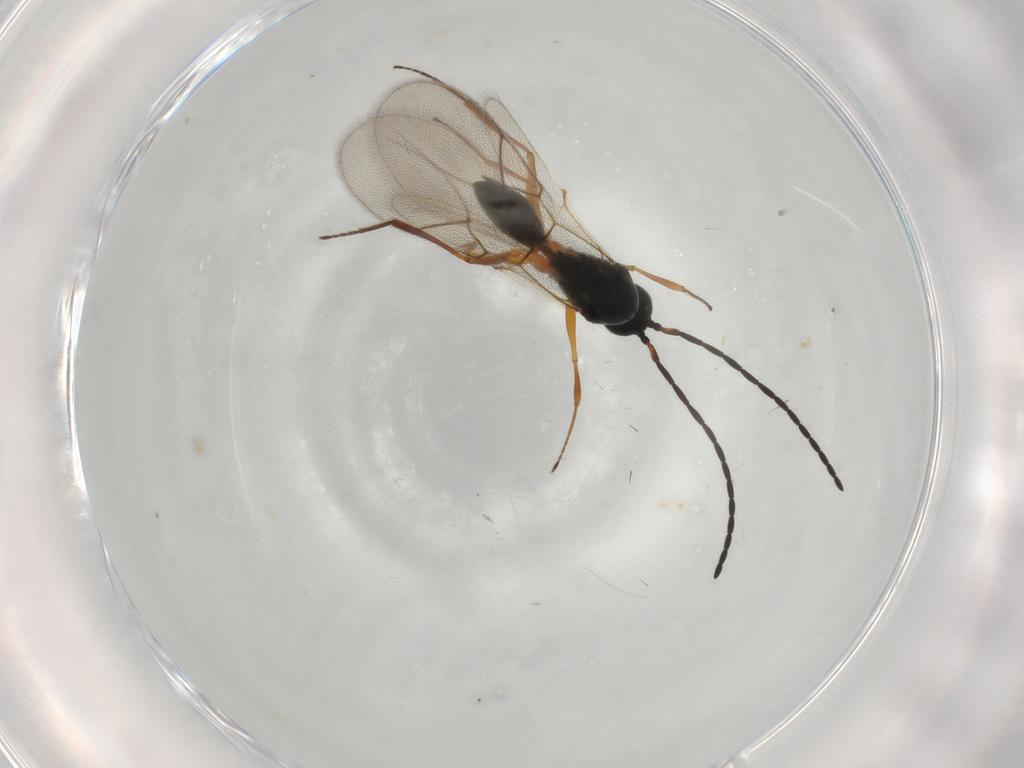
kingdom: Animalia
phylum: Arthropoda
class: Insecta
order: Hymenoptera
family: Figitidae
